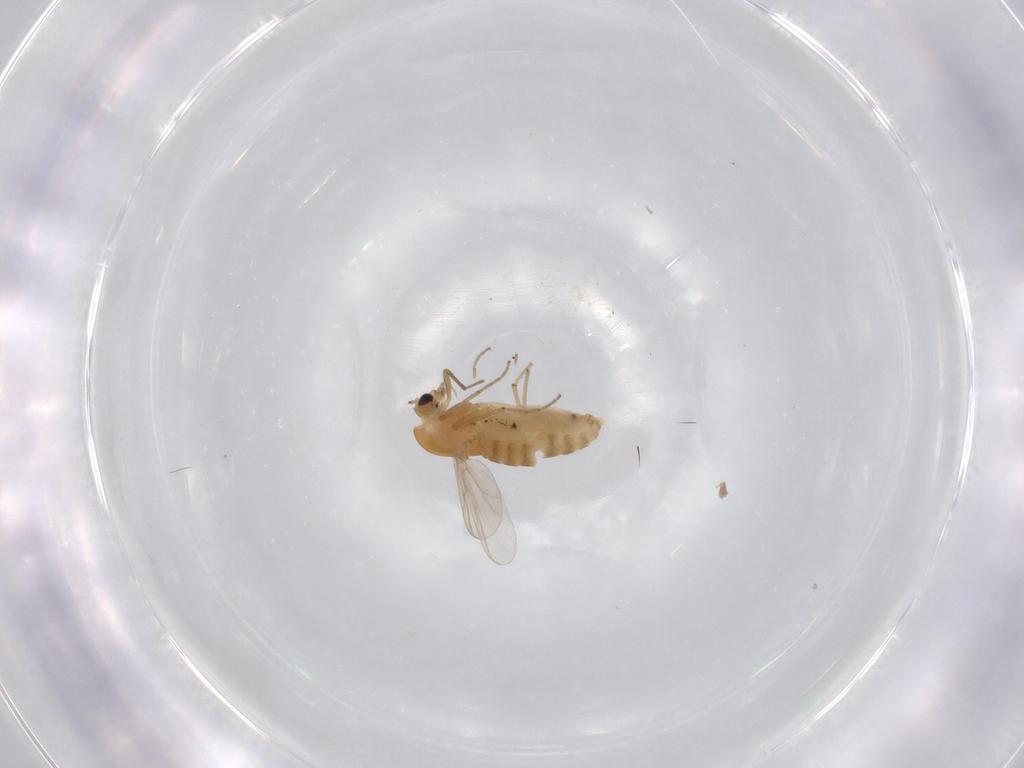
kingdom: Animalia
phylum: Arthropoda
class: Insecta
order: Diptera
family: Chironomidae
